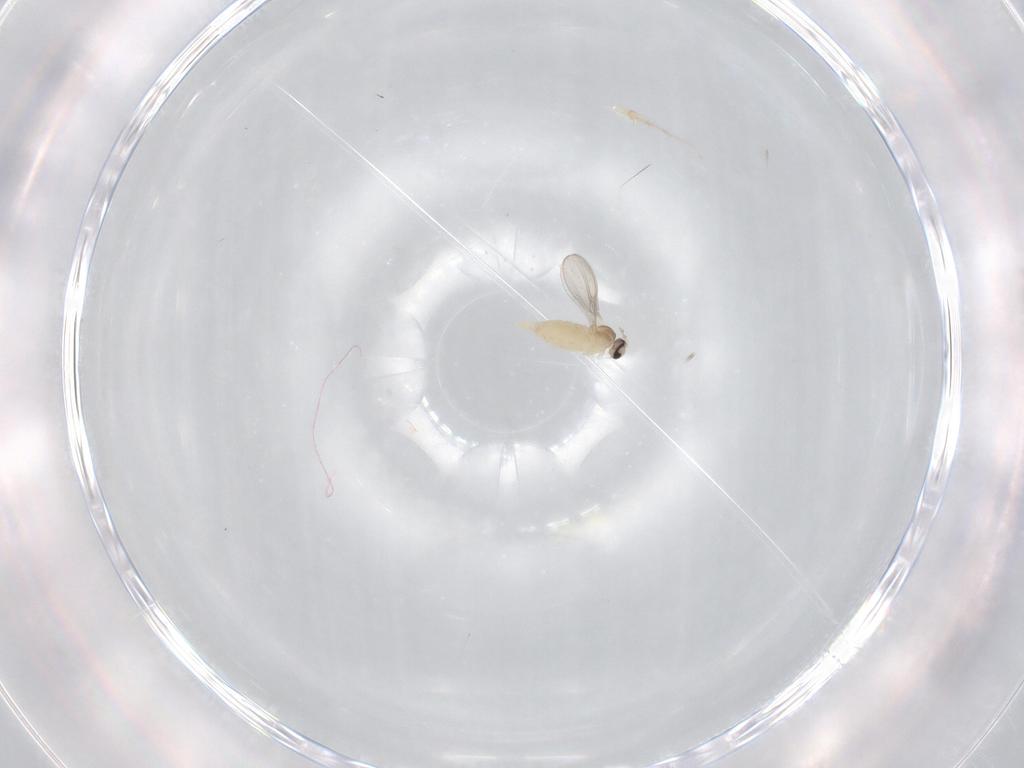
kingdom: Animalia
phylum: Arthropoda
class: Insecta
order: Diptera
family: Cecidomyiidae
